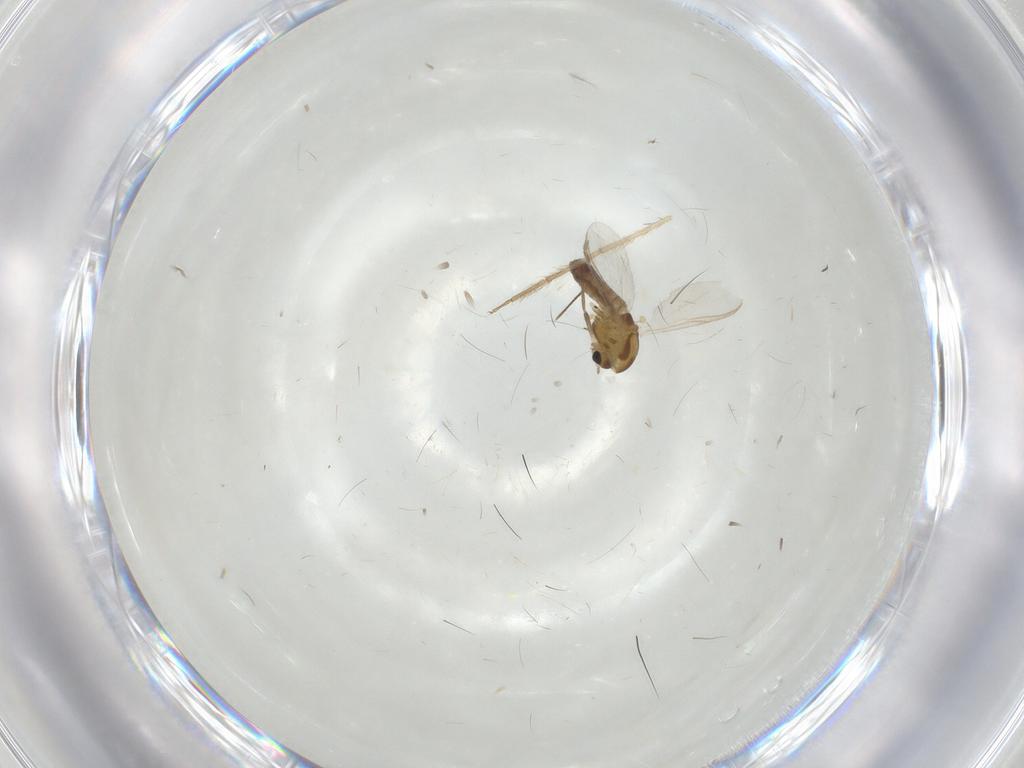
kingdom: Animalia
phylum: Arthropoda
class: Insecta
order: Diptera
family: Chironomidae
